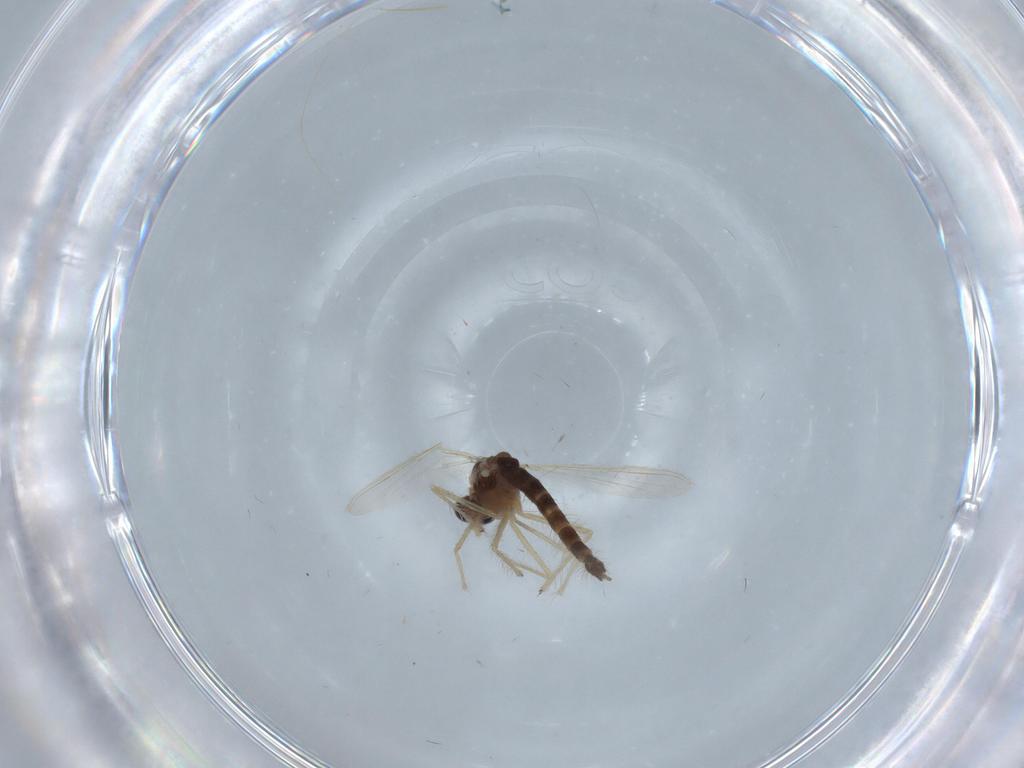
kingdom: Animalia
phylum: Arthropoda
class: Insecta
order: Diptera
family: Chironomidae
